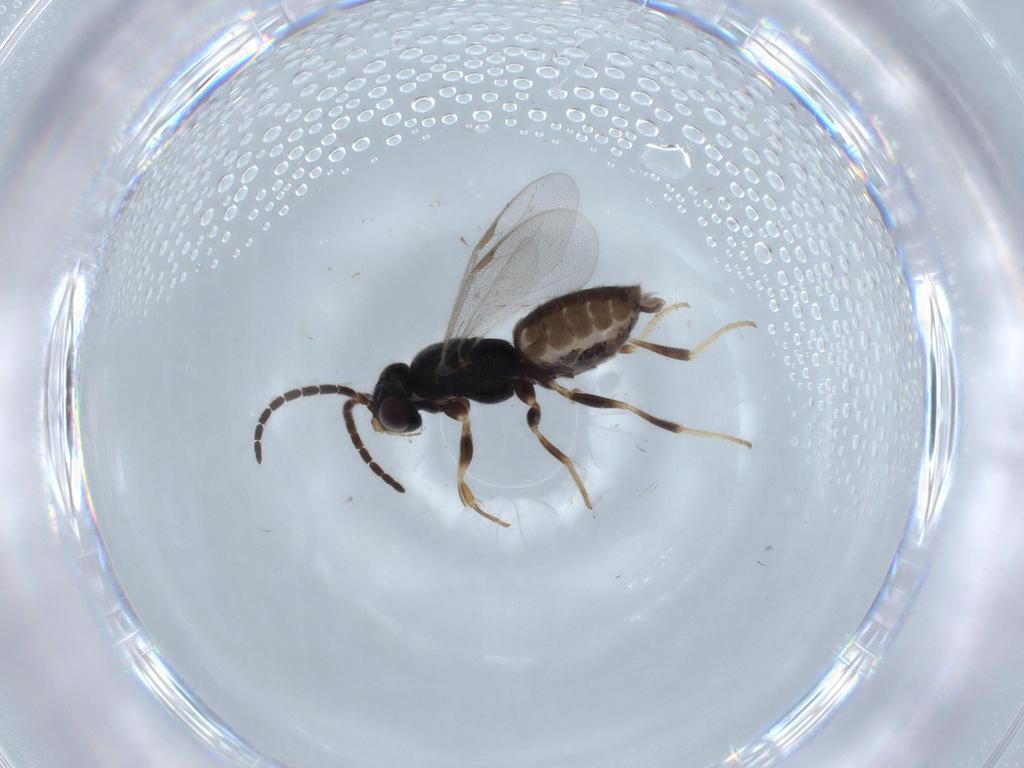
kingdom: Animalia
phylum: Arthropoda
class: Insecta
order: Hymenoptera
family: Dryinidae
